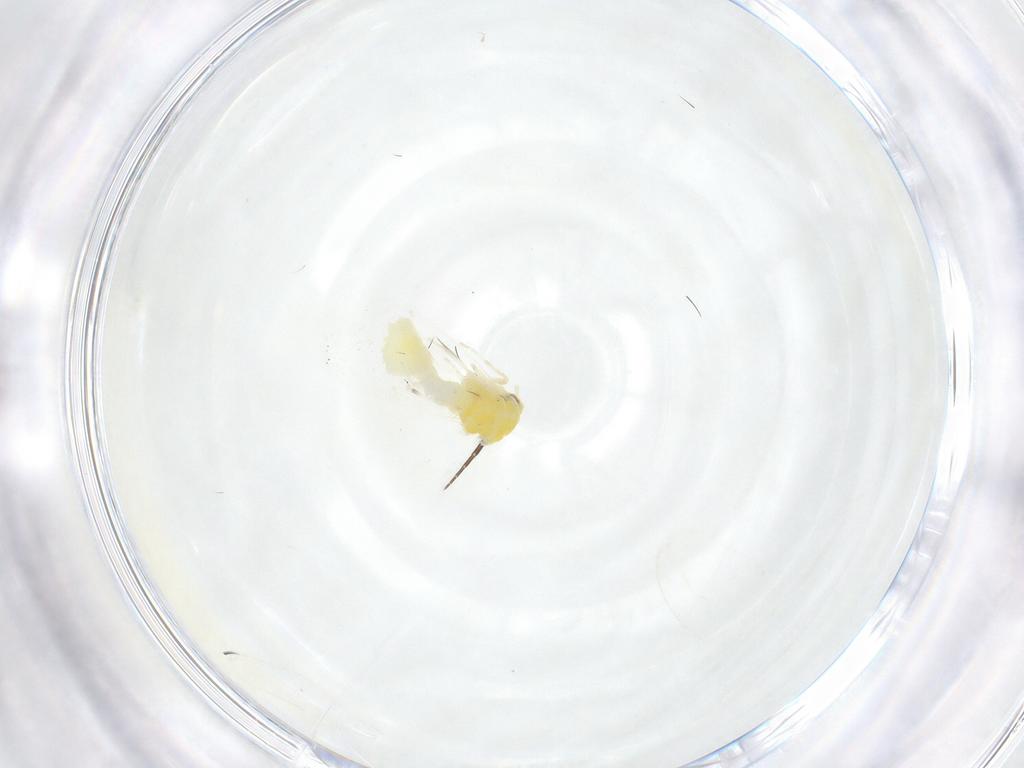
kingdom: Animalia
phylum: Arthropoda
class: Insecta
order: Hemiptera
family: Aleyrodidae
